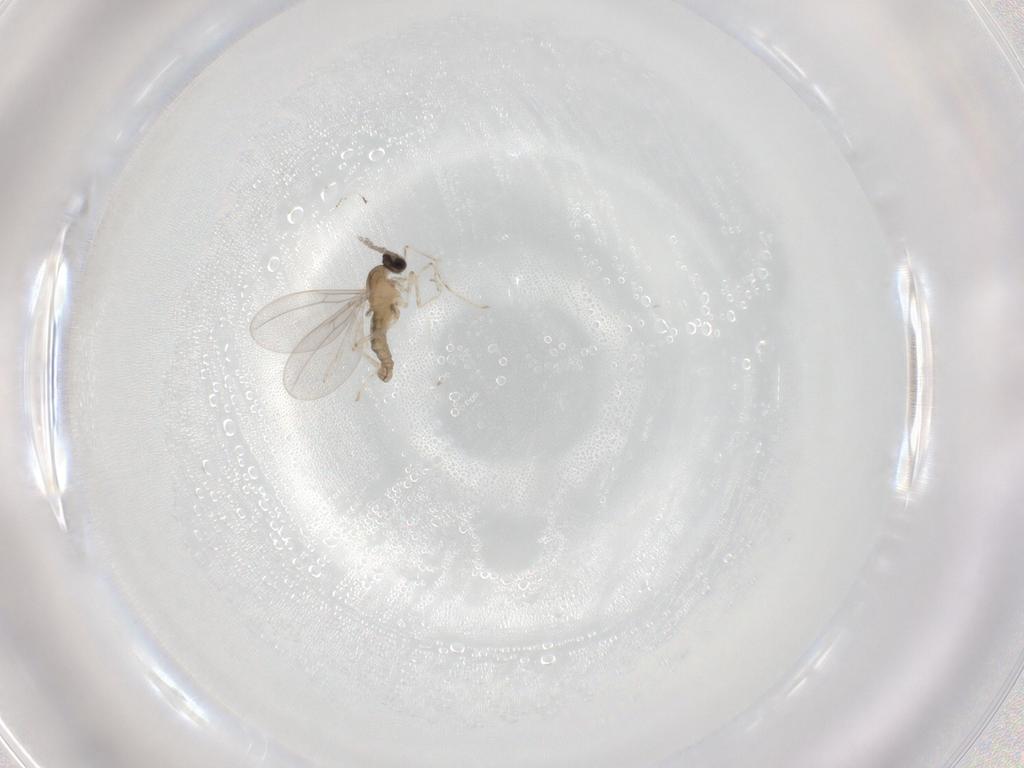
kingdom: Animalia
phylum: Arthropoda
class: Insecta
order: Diptera
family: Cecidomyiidae
